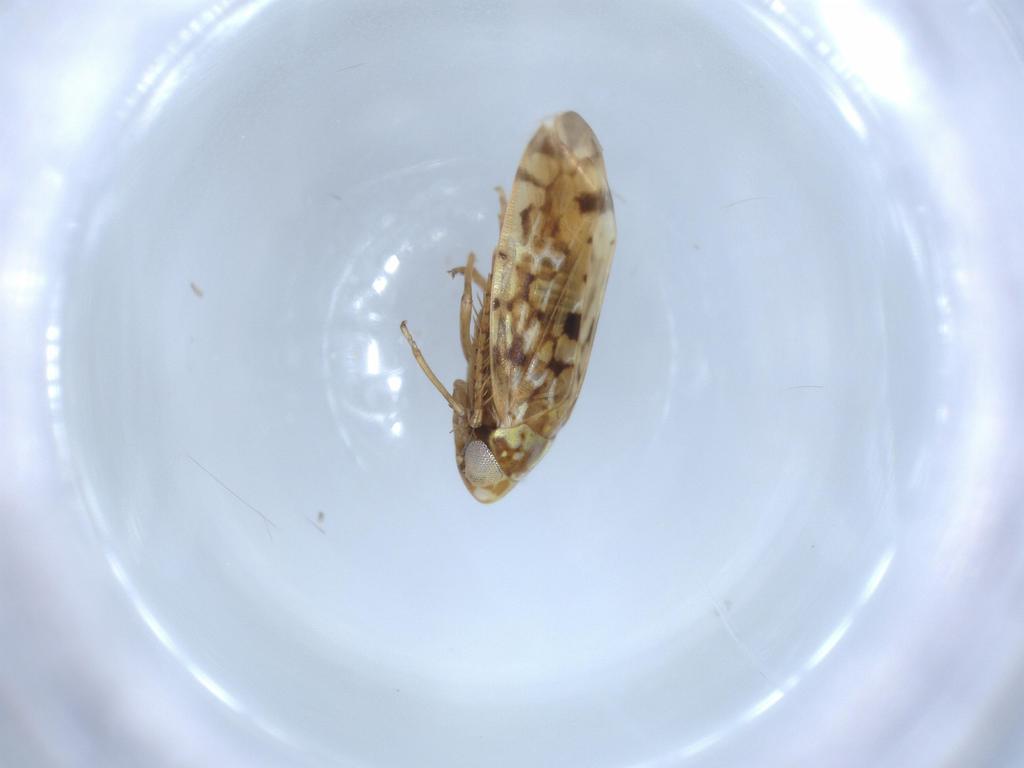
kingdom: Animalia
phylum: Arthropoda
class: Insecta
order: Hemiptera
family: Cicadellidae
